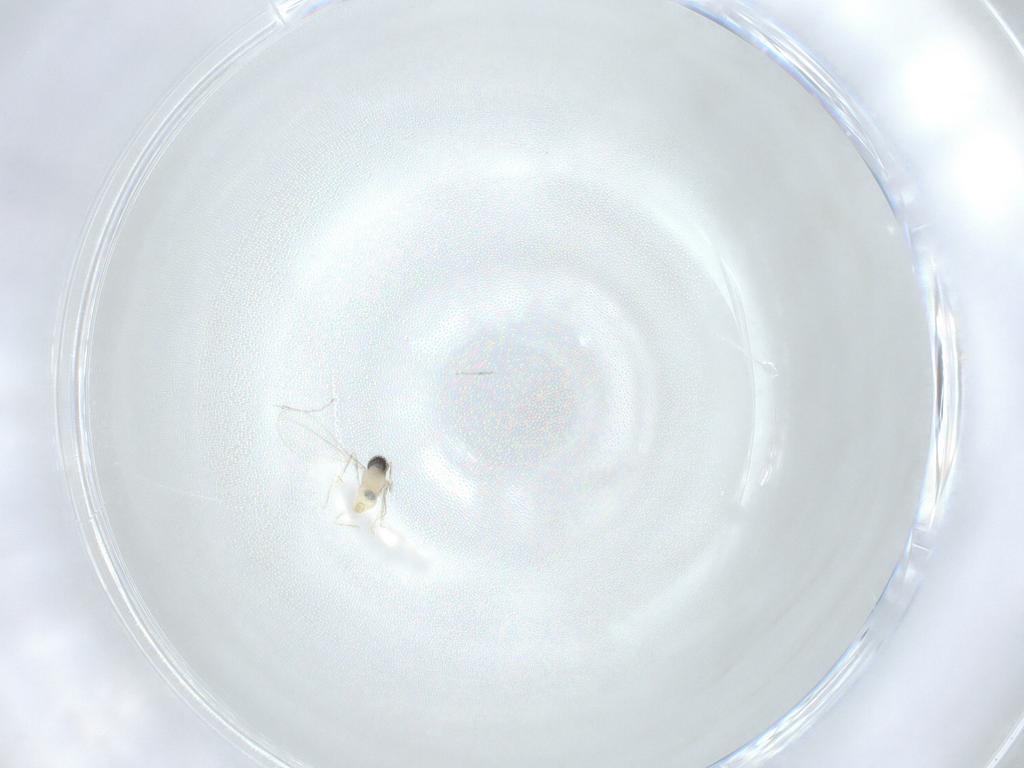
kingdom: Animalia
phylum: Arthropoda
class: Insecta
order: Diptera
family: Cecidomyiidae
